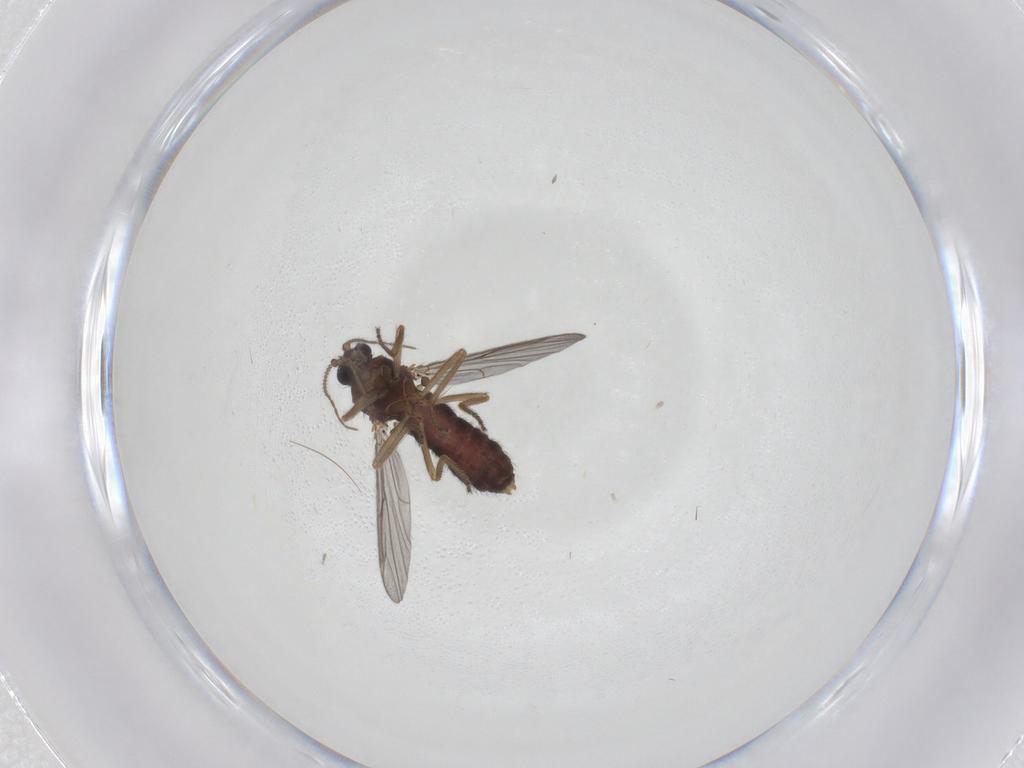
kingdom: Animalia
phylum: Arthropoda
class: Insecta
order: Diptera
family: Ceratopogonidae
